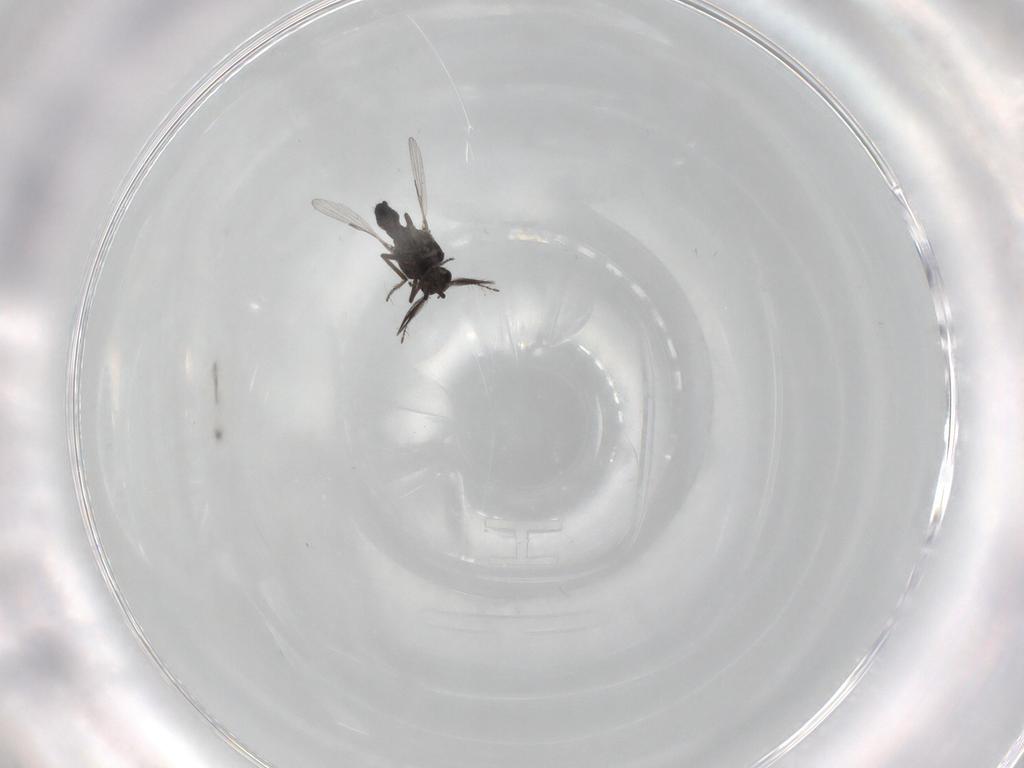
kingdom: Animalia
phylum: Arthropoda
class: Insecta
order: Diptera
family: Ceratopogonidae
